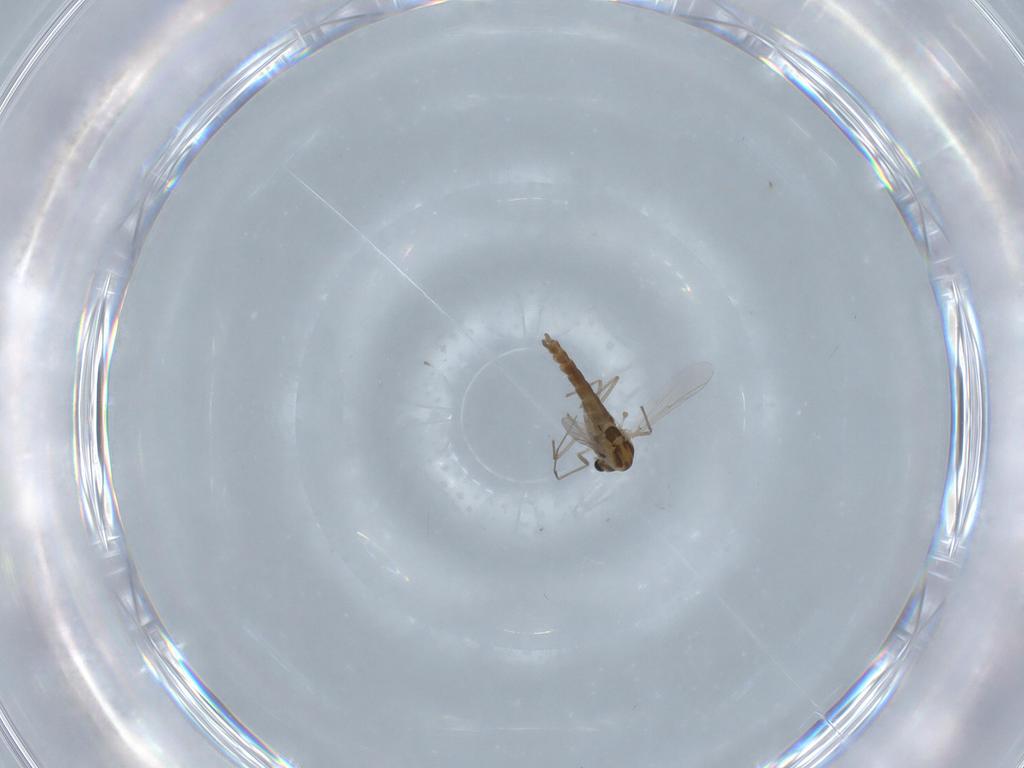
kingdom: Animalia
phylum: Arthropoda
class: Insecta
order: Diptera
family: Chironomidae
